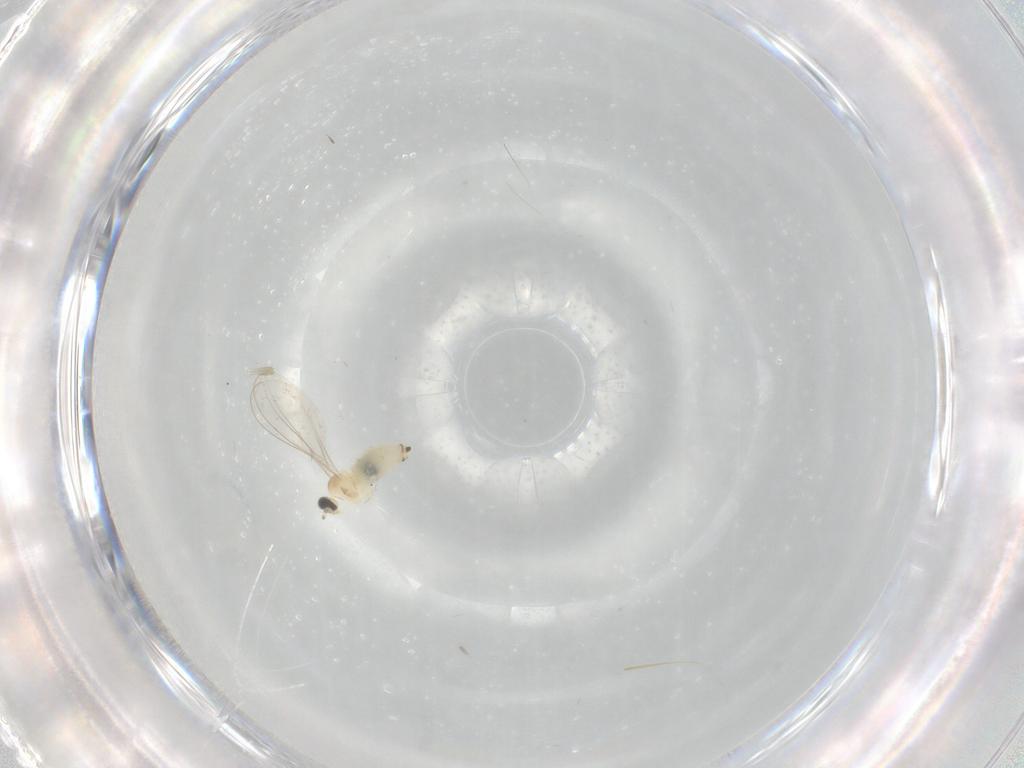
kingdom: Animalia
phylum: Arthropoda
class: Insecta
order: Diptera
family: Cecidomyiidae
